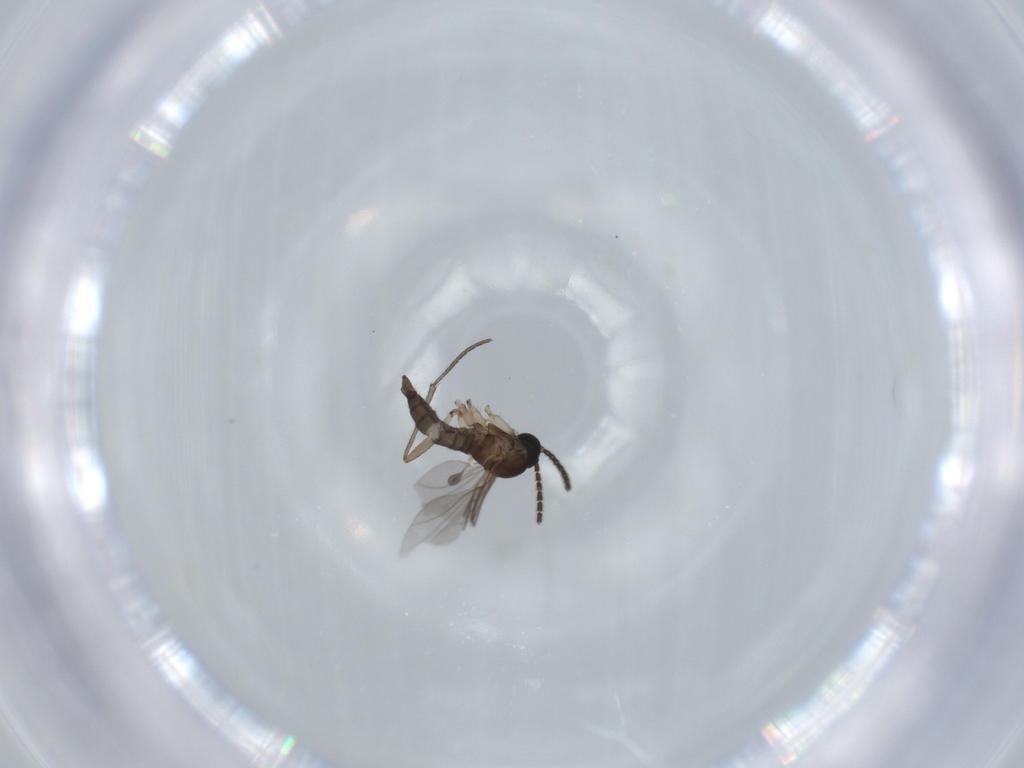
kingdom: Animalia
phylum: Arthropoda
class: Insecta
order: Diptera
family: Sciaridae
